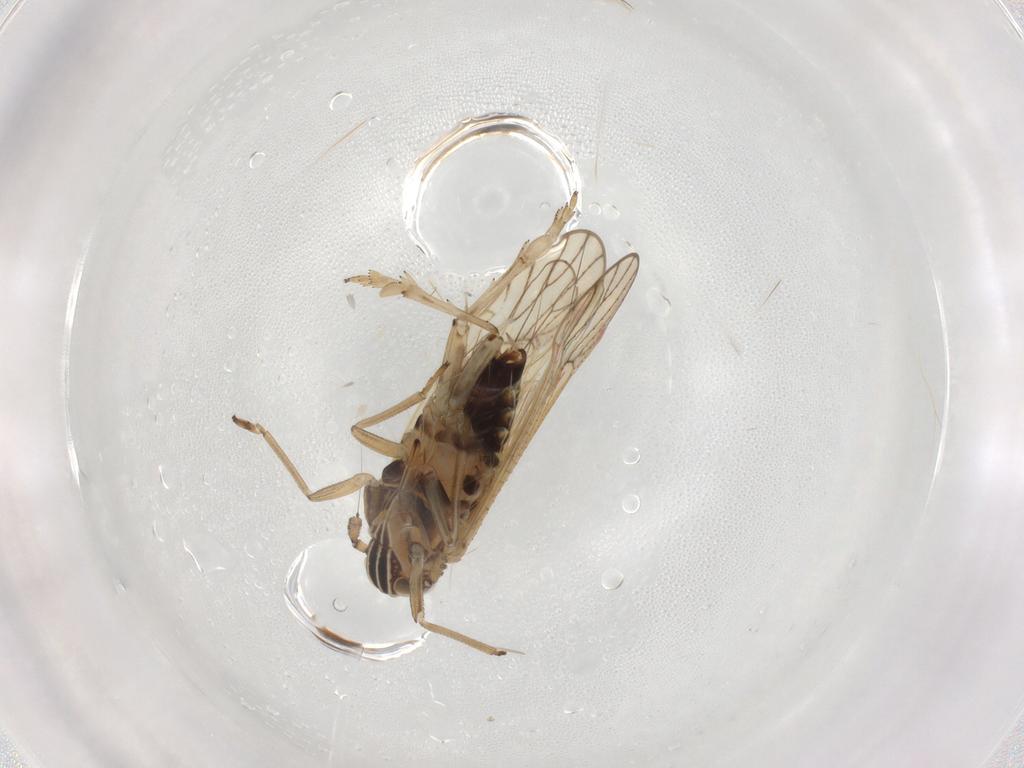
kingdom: Animalia
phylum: Arthropoda
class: Insecta
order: Hemiptera
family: Delphacidae
